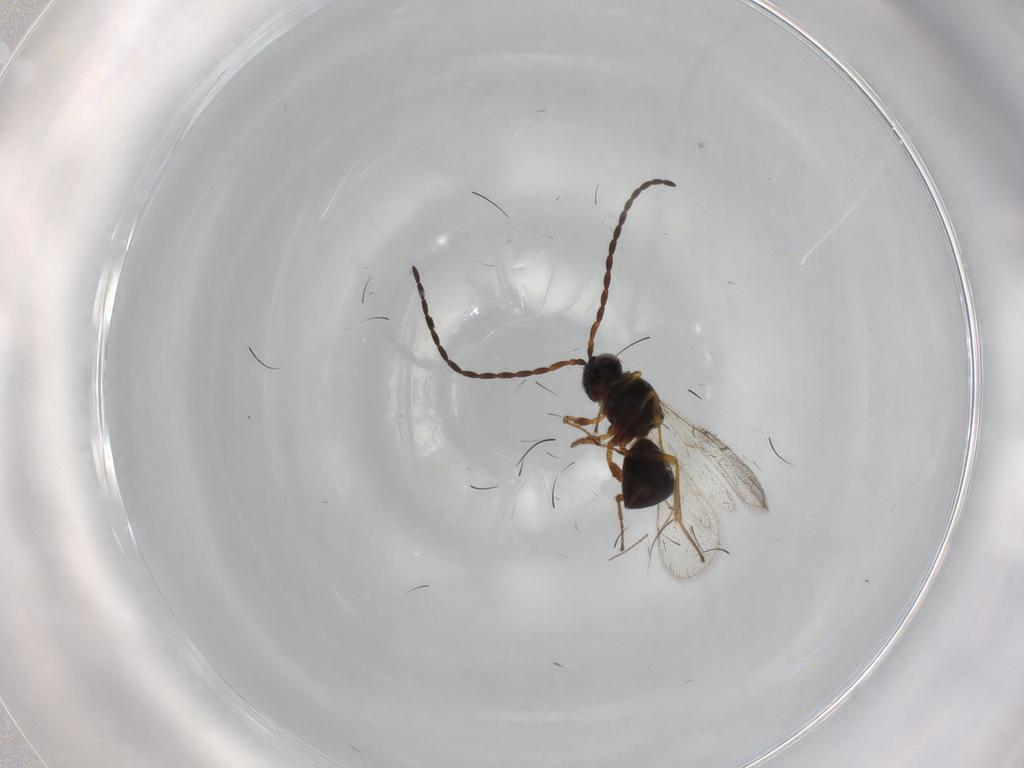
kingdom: Animalia
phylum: Arthropoda
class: Insecta
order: Hymenoptera
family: Figitidae
